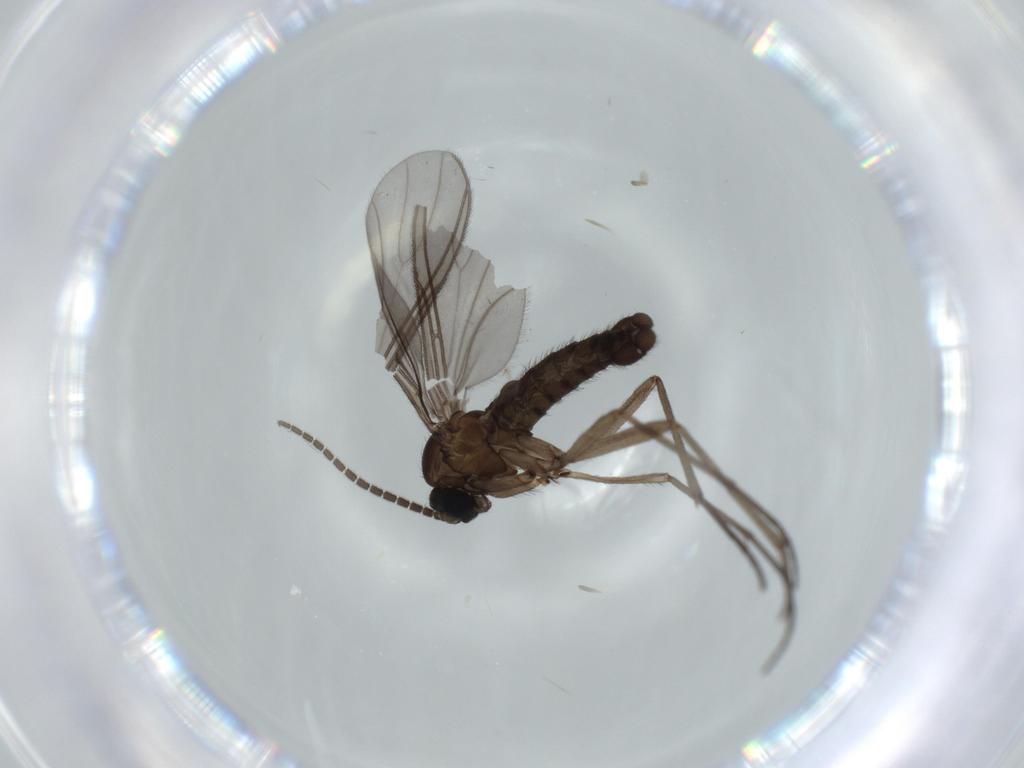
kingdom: Animalia
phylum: Arthropoda
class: Insecta
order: Diptera
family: Sciaridae
